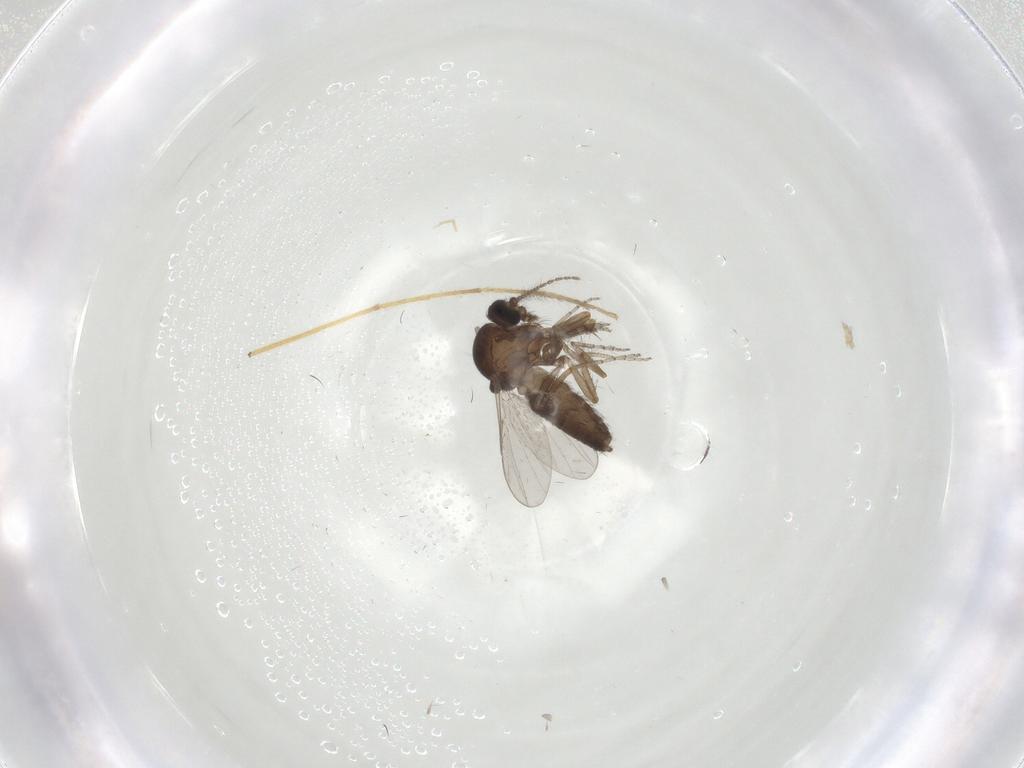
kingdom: Animalia
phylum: Arthropoda
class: Insecta
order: Diptera
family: Ceratopogonidae
